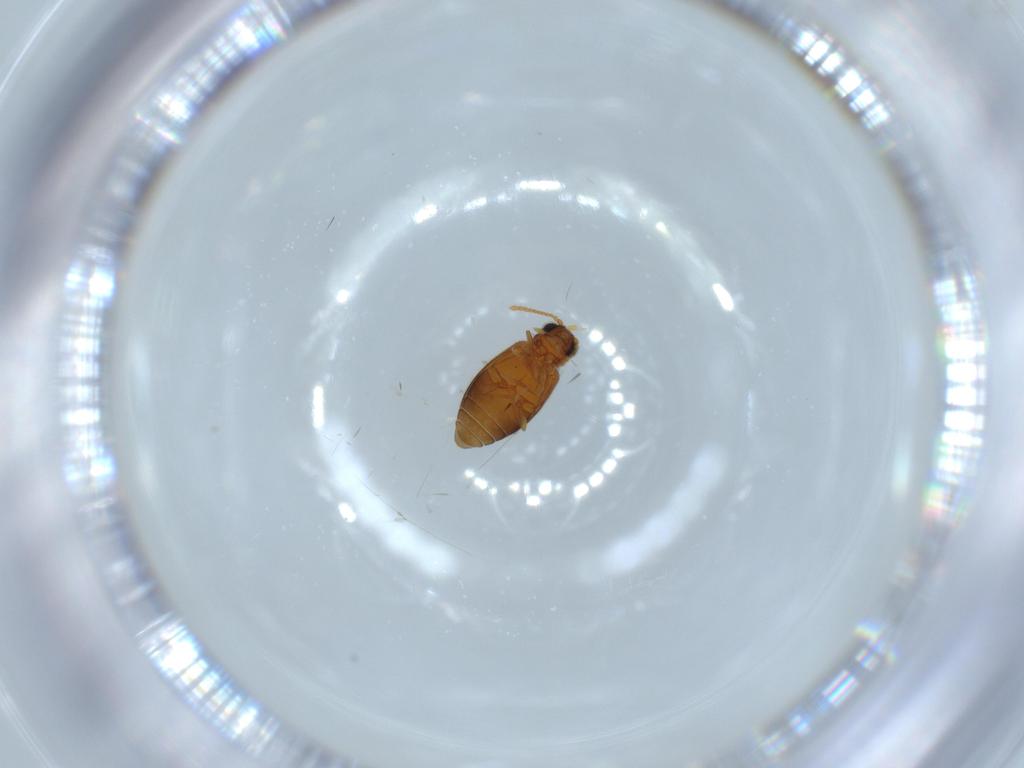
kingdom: Animalia
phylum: Arthropoda
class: Insecta
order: Coleoptera
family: Aderidae
